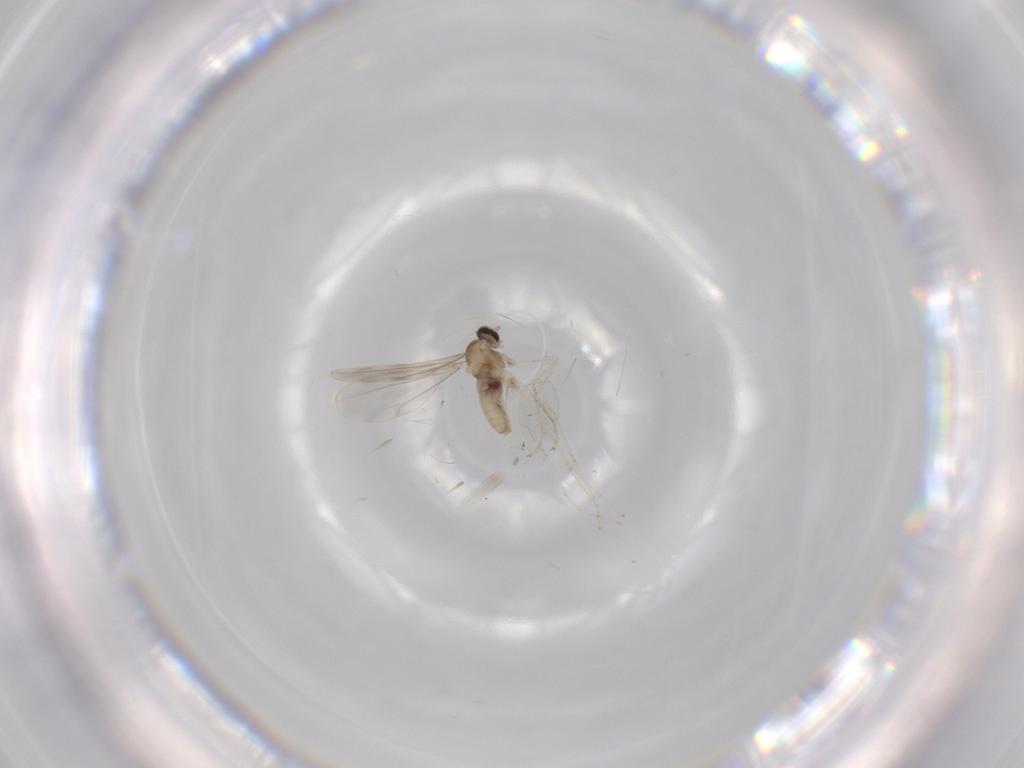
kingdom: Animalia
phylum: Arthropoda
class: Insecta
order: Diptera
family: Cecidomyiidae
